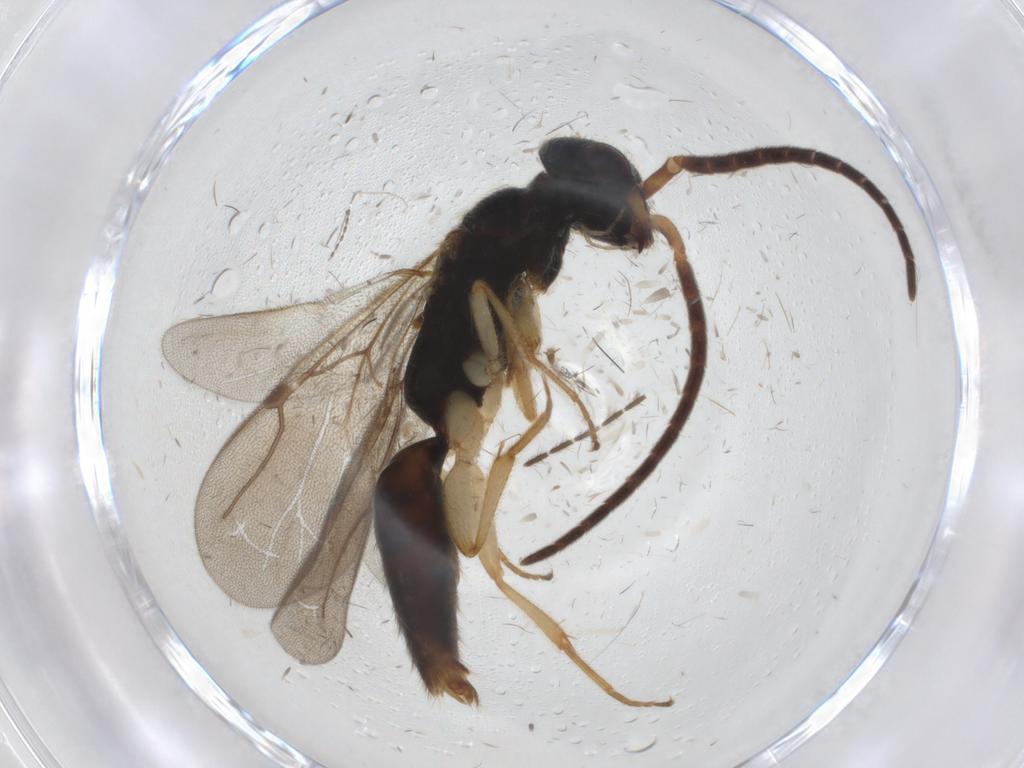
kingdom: Animalia
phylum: Arthropoda
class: Insecta
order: Hymenoptera
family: Bethylidae
